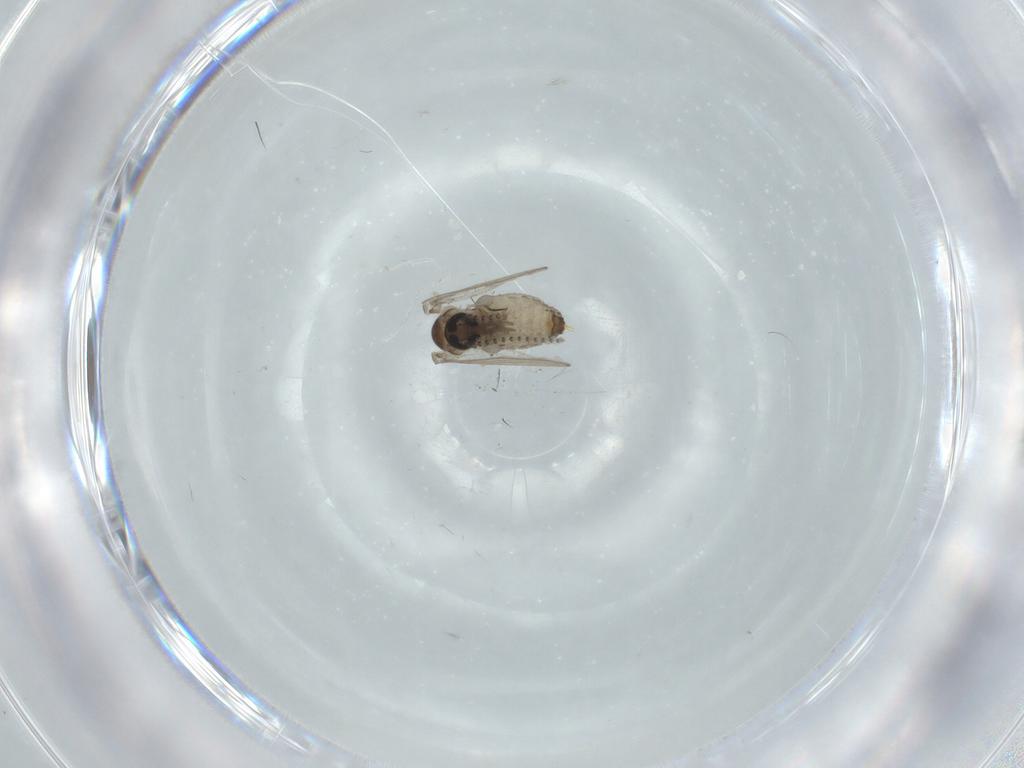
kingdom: Animalia
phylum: Arthropoda
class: Insecta
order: Diptera
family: Psychodidae
